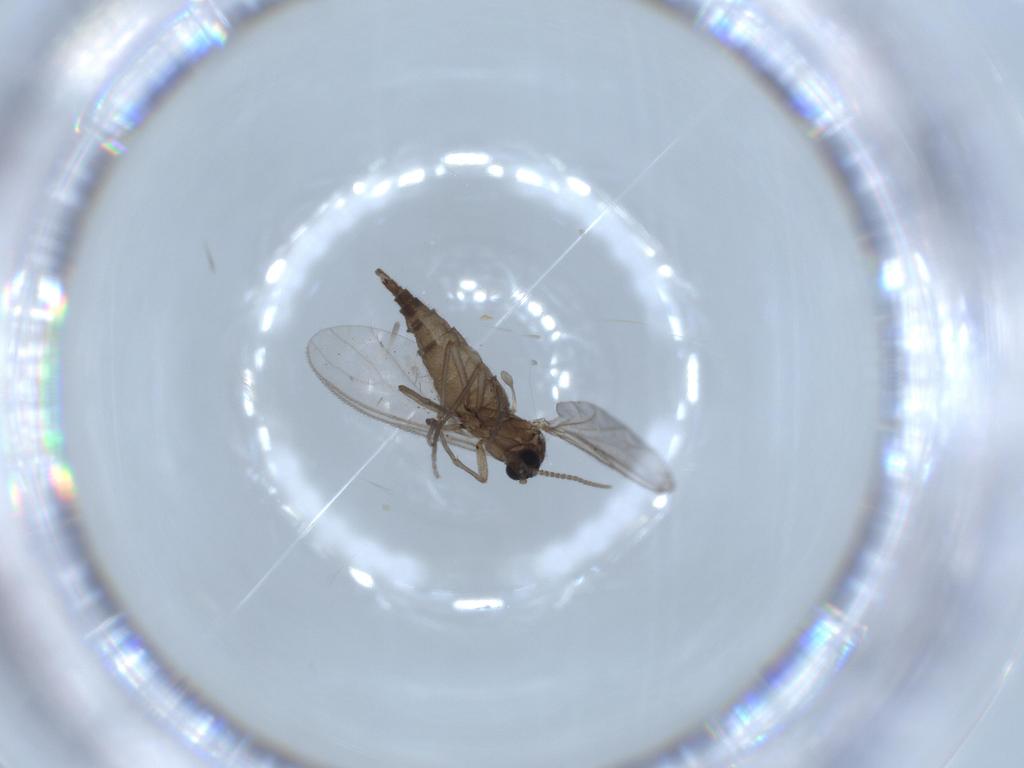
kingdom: Animalia
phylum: Arthropoda
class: Insecta
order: Diptera
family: Sciaridae
